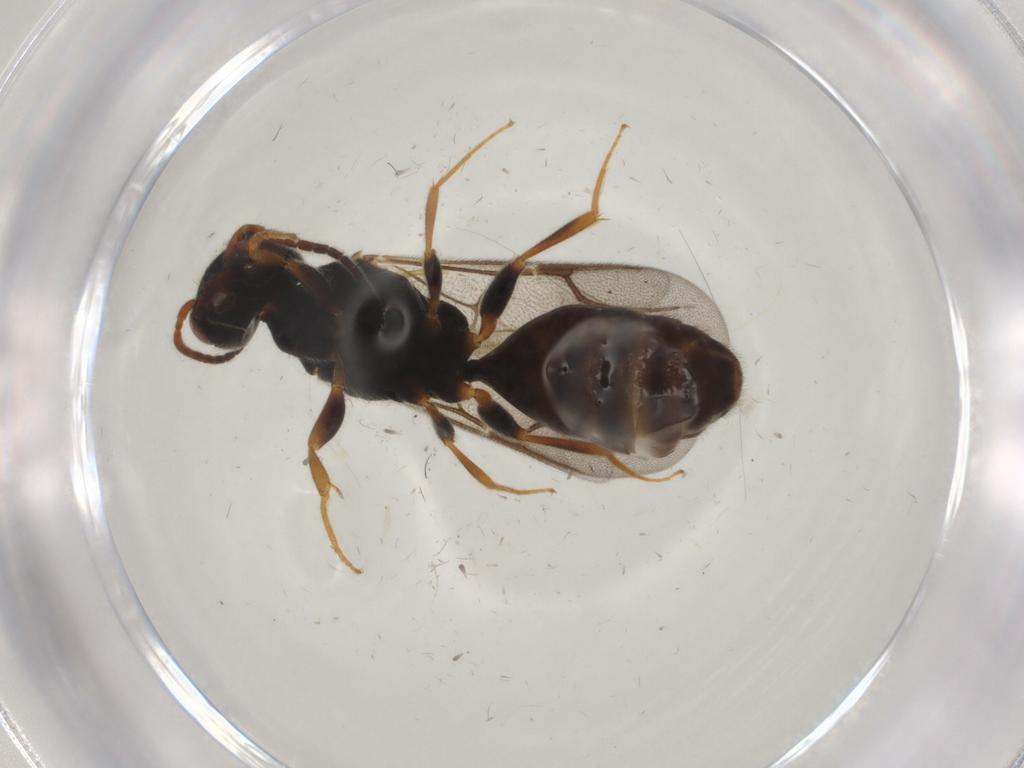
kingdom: Animalia
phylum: Arthropoda
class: Insecta
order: Hymenoptera
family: Bethylidae
